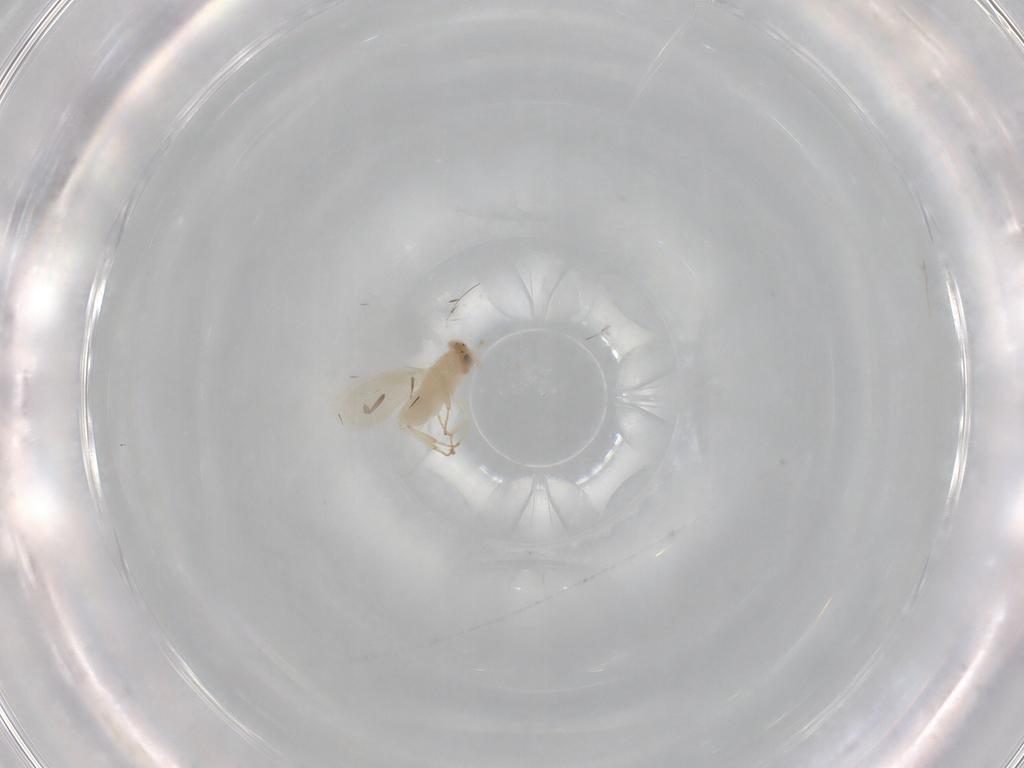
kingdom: Animalia
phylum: Arthropoda
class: Insecta
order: Hymenoptera
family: Aphelinidae
